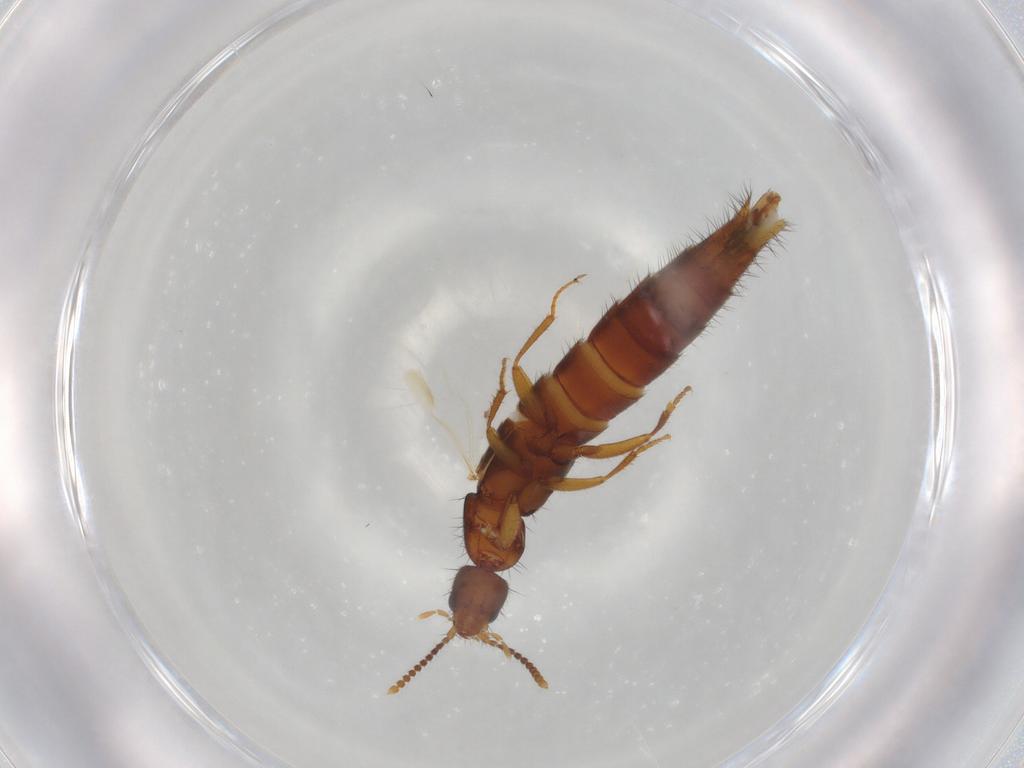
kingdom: Animalia
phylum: Arthropoda
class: Insecta
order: Coleoptera
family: Staphylinidae
